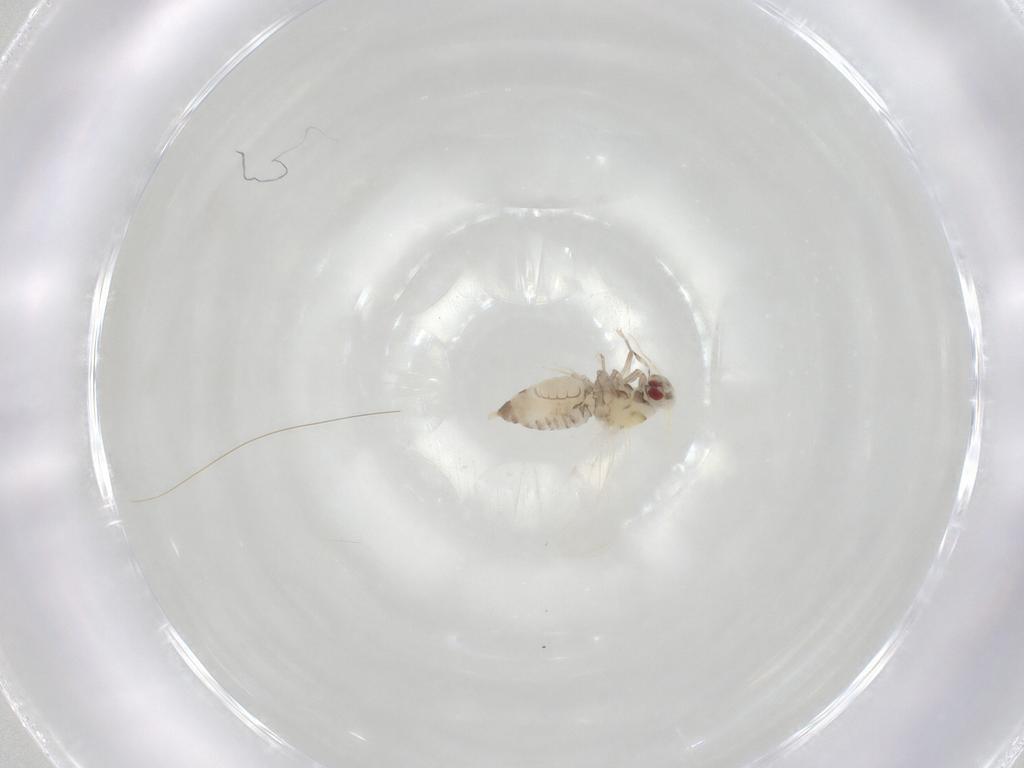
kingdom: Animalia
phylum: Arthropoda
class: Insecta
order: Hemiptera
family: Aleyrodidae
